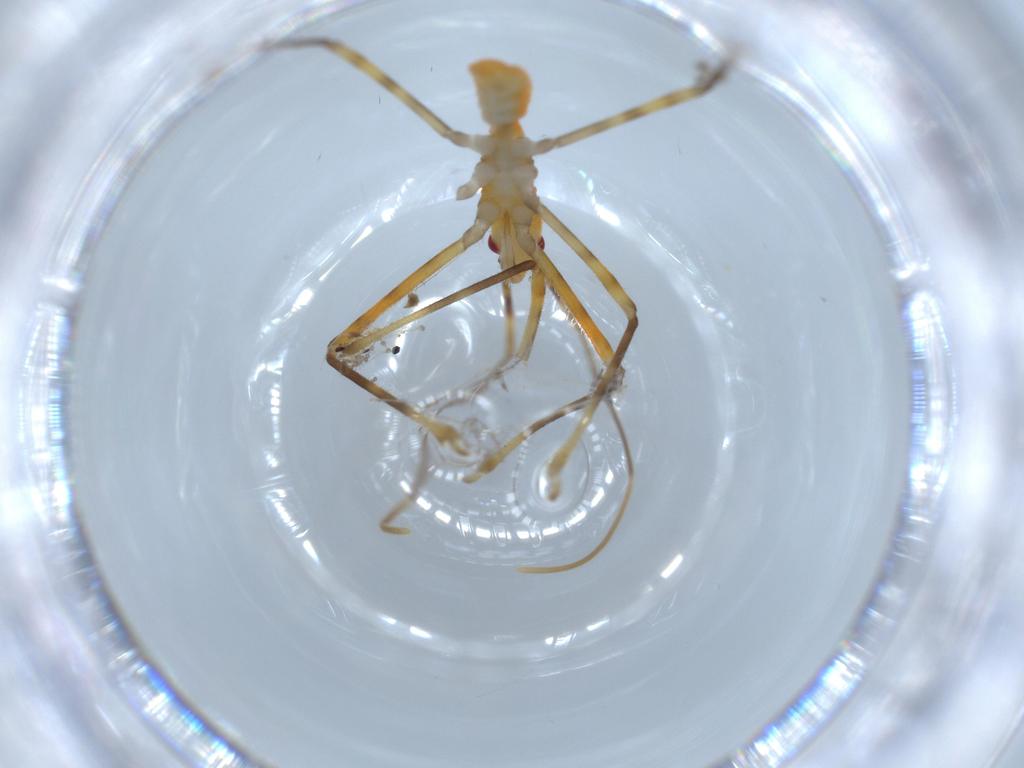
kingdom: Animalia
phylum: Arthropoda
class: Insecta
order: Hemiptera
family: Reduviidae
